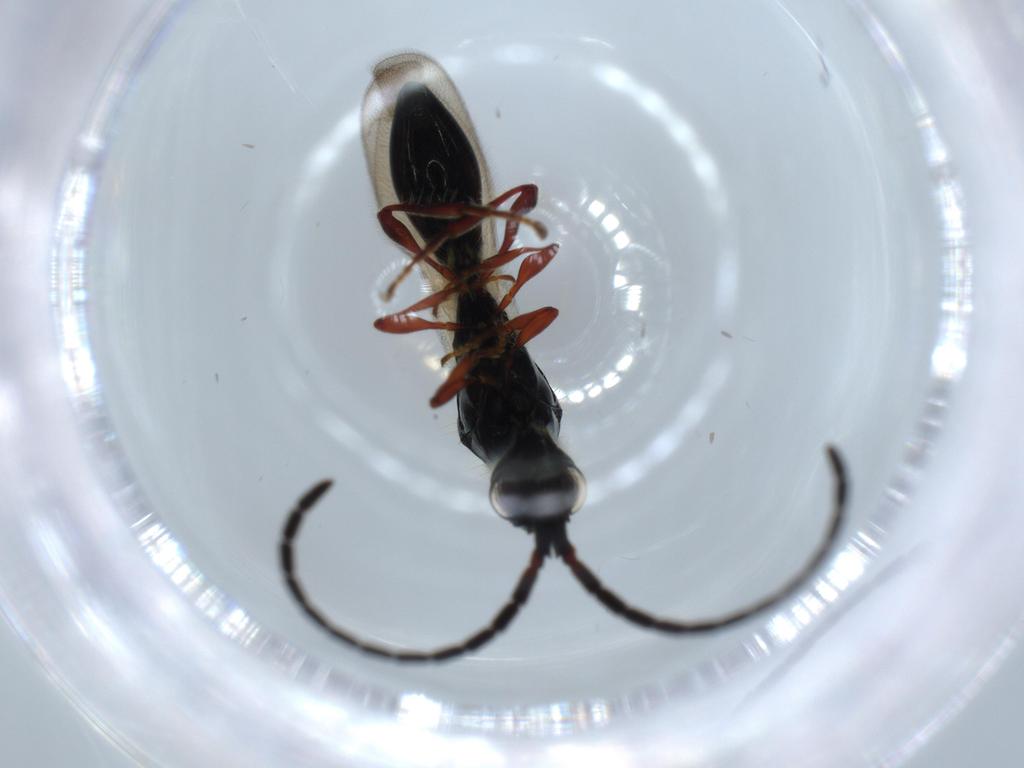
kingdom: Animalia
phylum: Arthropoda
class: Insecta
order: Hymenoptera
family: Diapriidae
